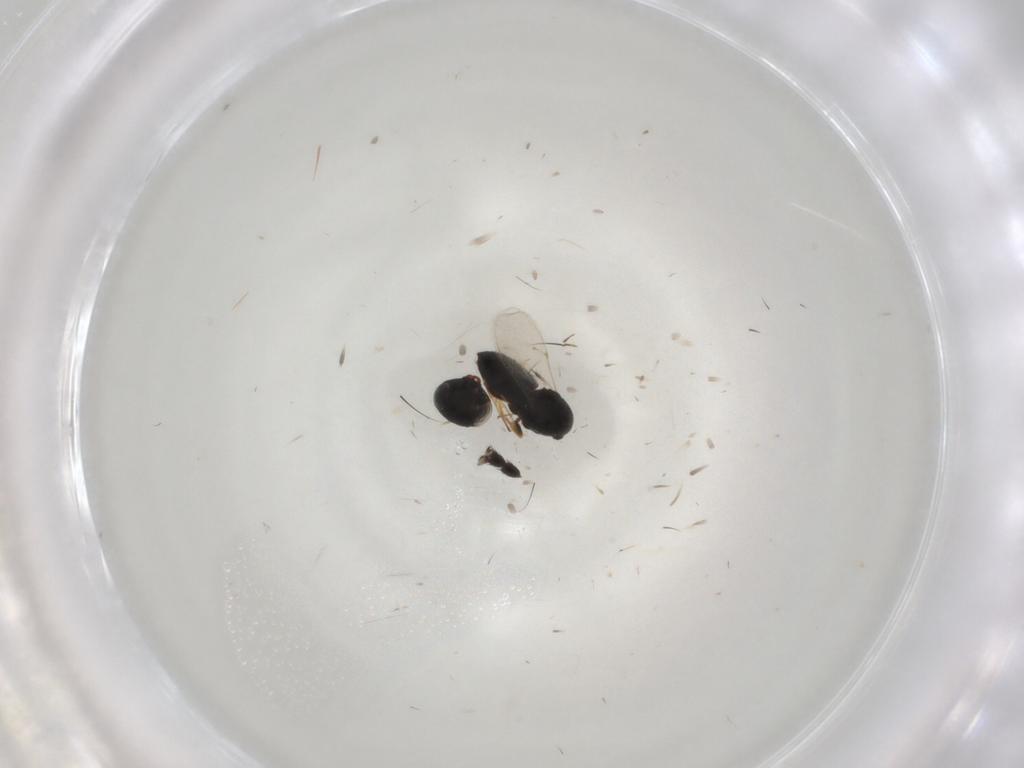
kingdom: Animalia
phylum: Arthropoda
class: Insecta
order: Hymenoptera
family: Scelionidae
